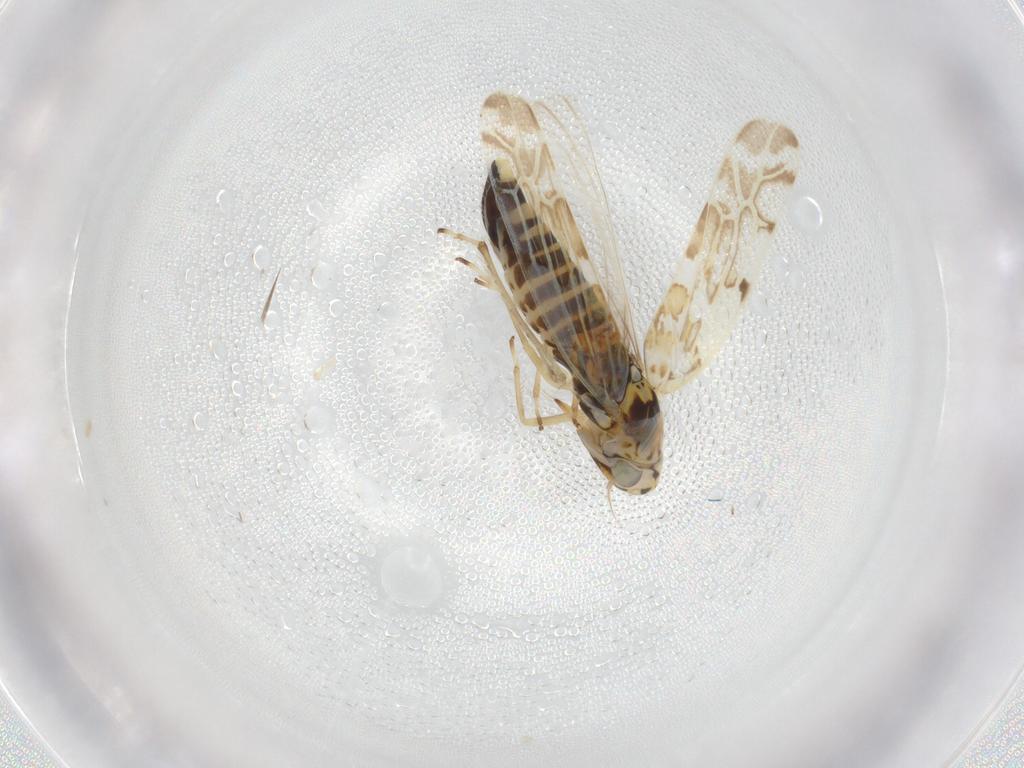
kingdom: Animalia
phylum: Arthropoda
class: Insecta
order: Hemiptera
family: Cicadellidae
